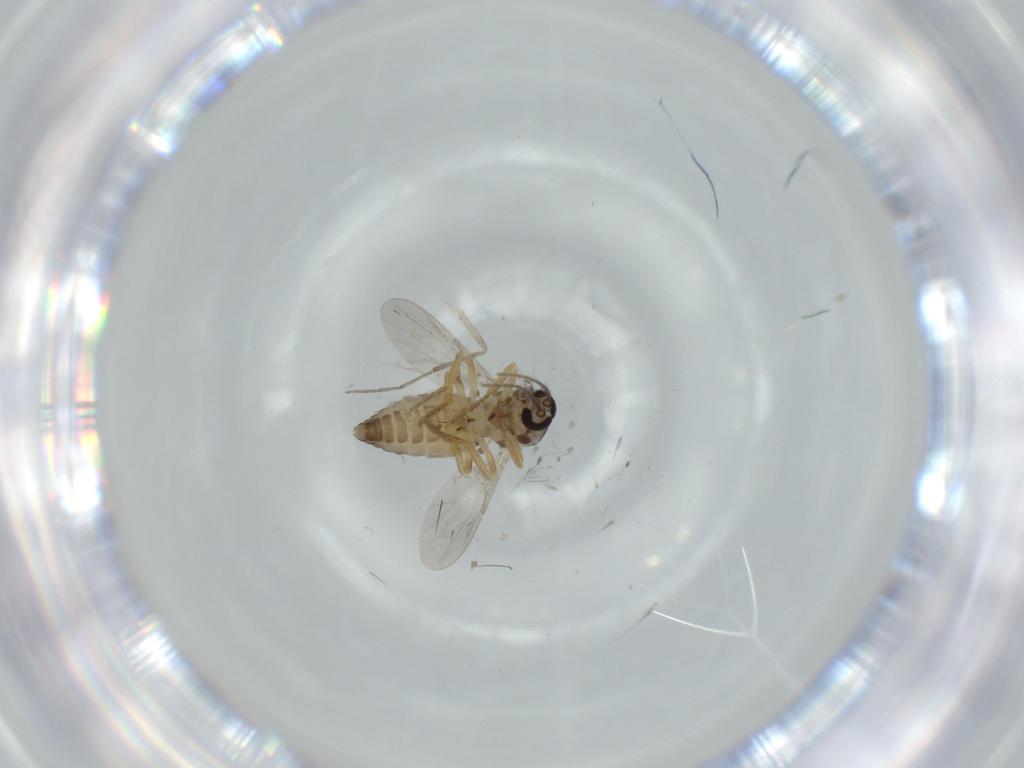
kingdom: Animalia
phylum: Arthropoda
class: Insecta
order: Diptera
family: Ceratopogonidae
